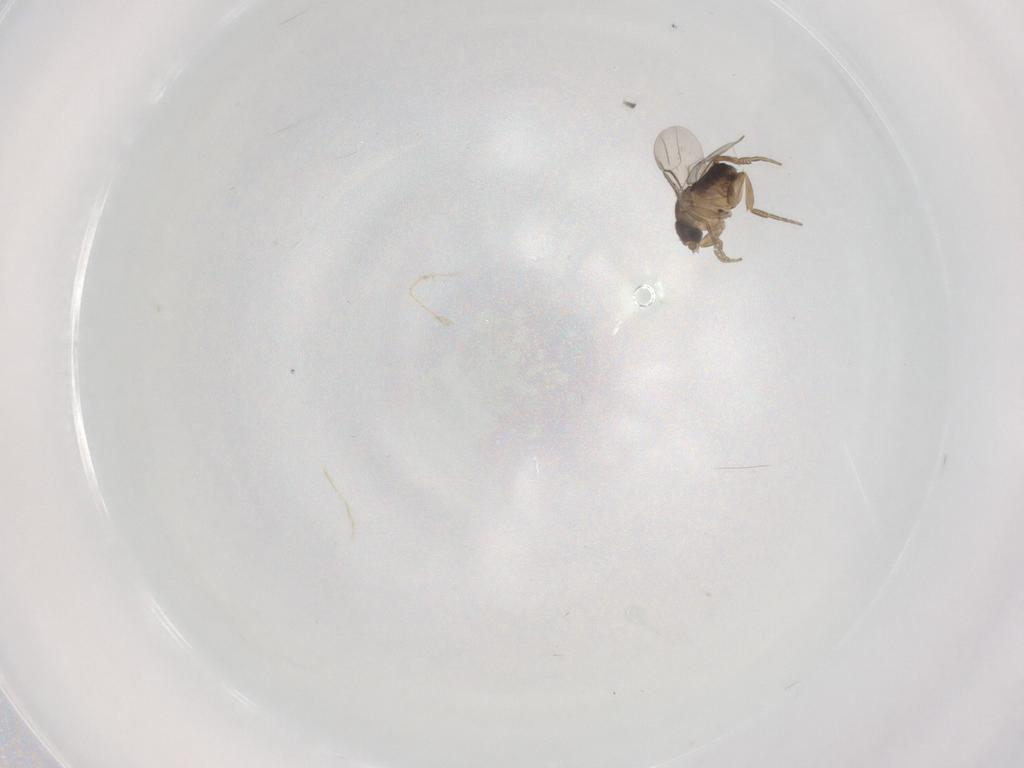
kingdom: Animalia
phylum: Arthropoda
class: Insecta
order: Diptera
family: Phoridae
